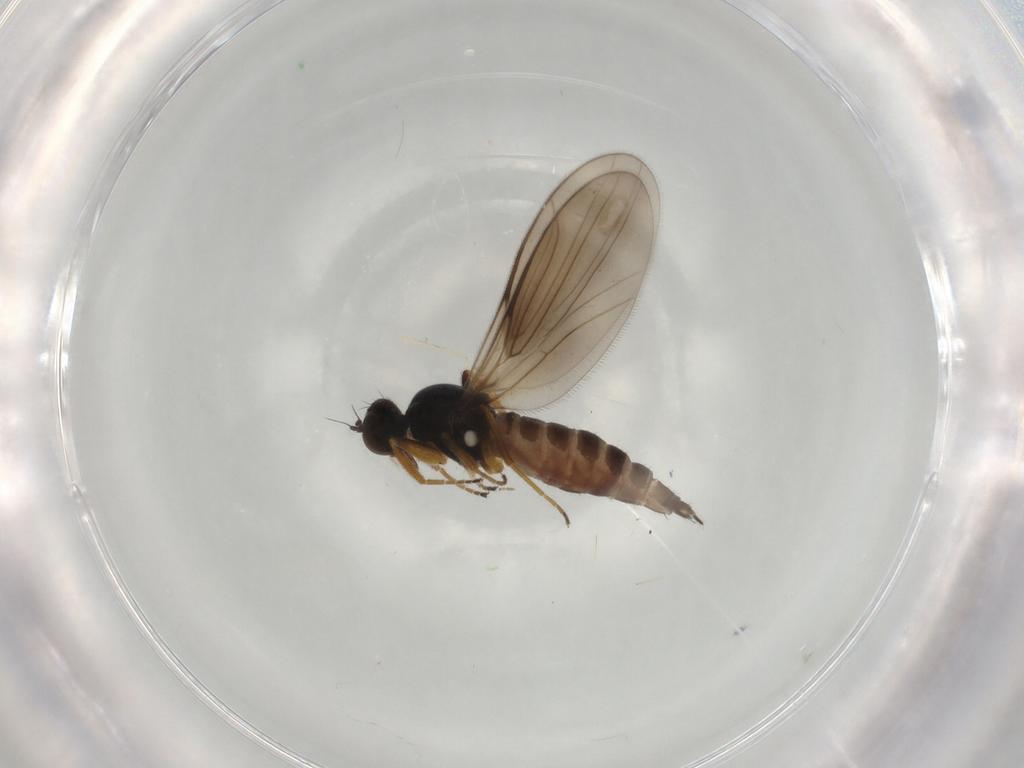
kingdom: Animalia
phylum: Arthropoda
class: Insecta
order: Diptera
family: Hybotidae
